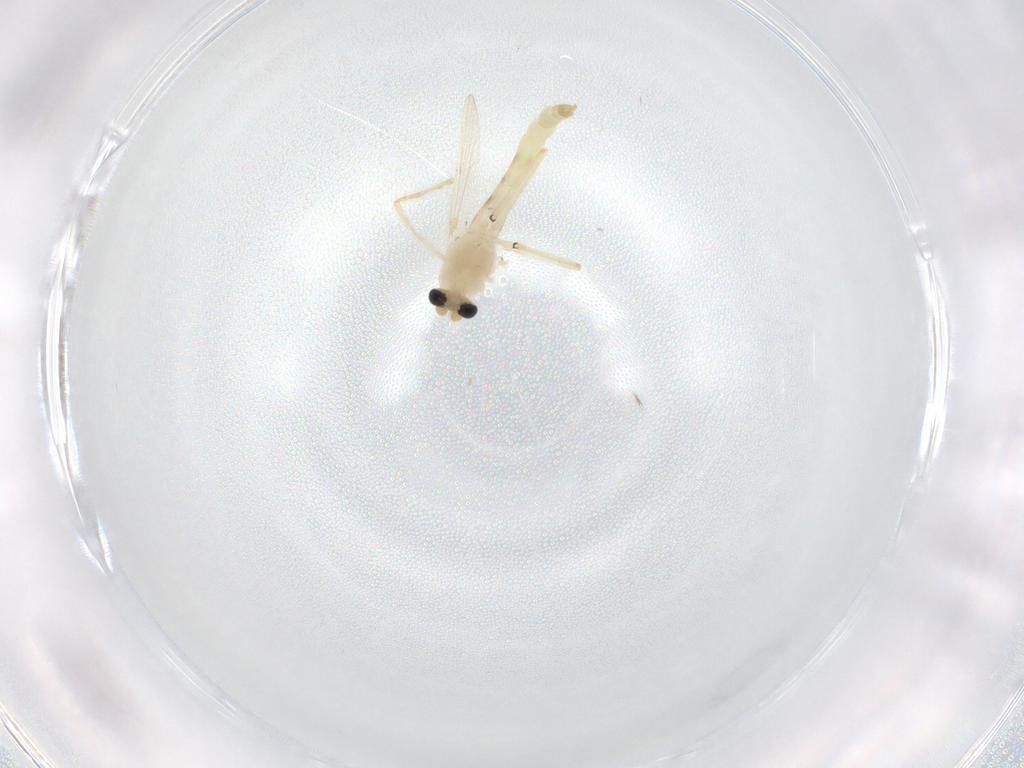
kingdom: Animalia
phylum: Arthropoda
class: Insecta
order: Diptera
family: Chironomidae
